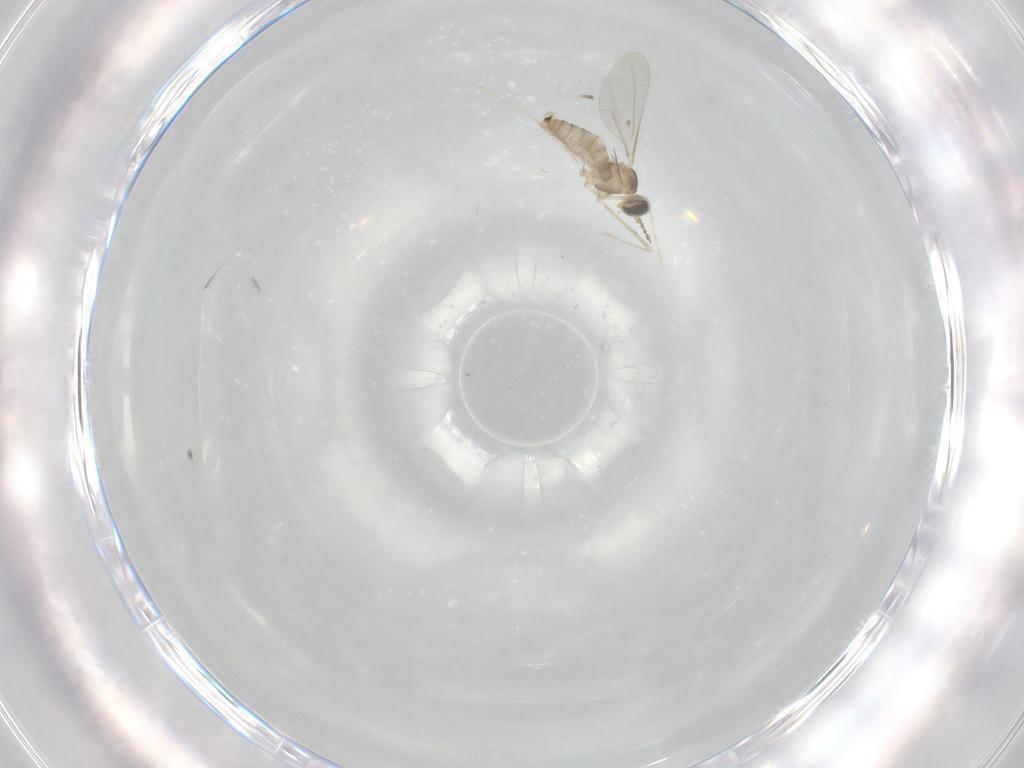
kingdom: Animalia
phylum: Arthropoda
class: Insecta
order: Diptera
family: Cecidomyiidae
